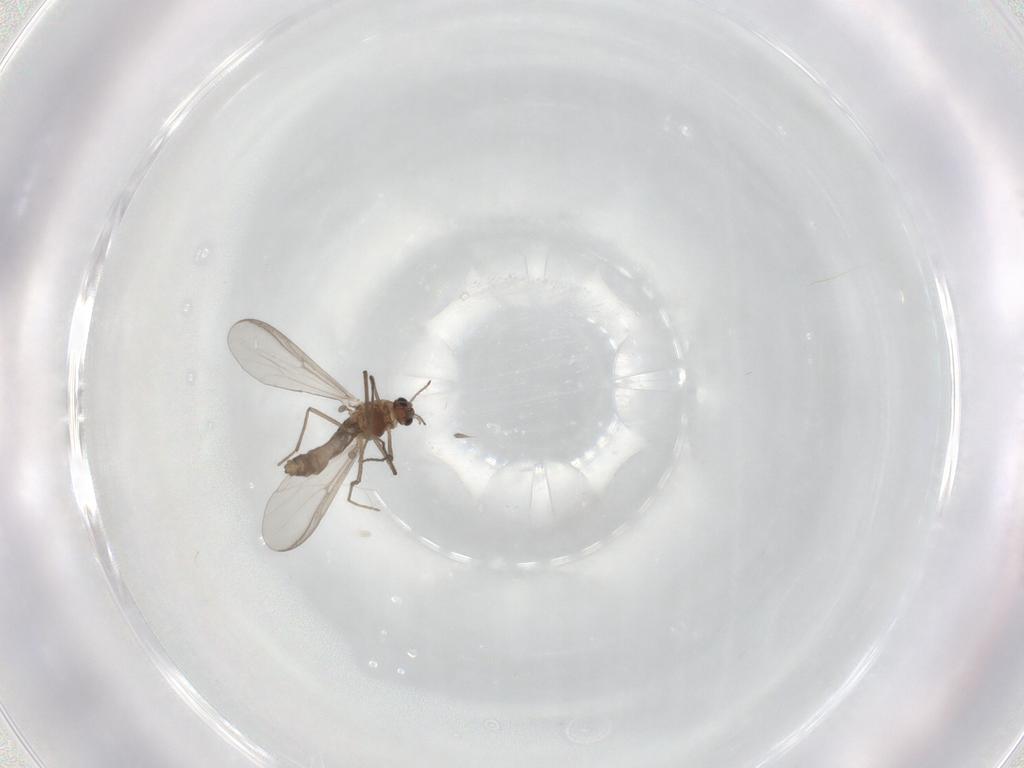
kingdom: Animalia
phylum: Arthropoda
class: Insecta
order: Diptera
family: Chironomidae
